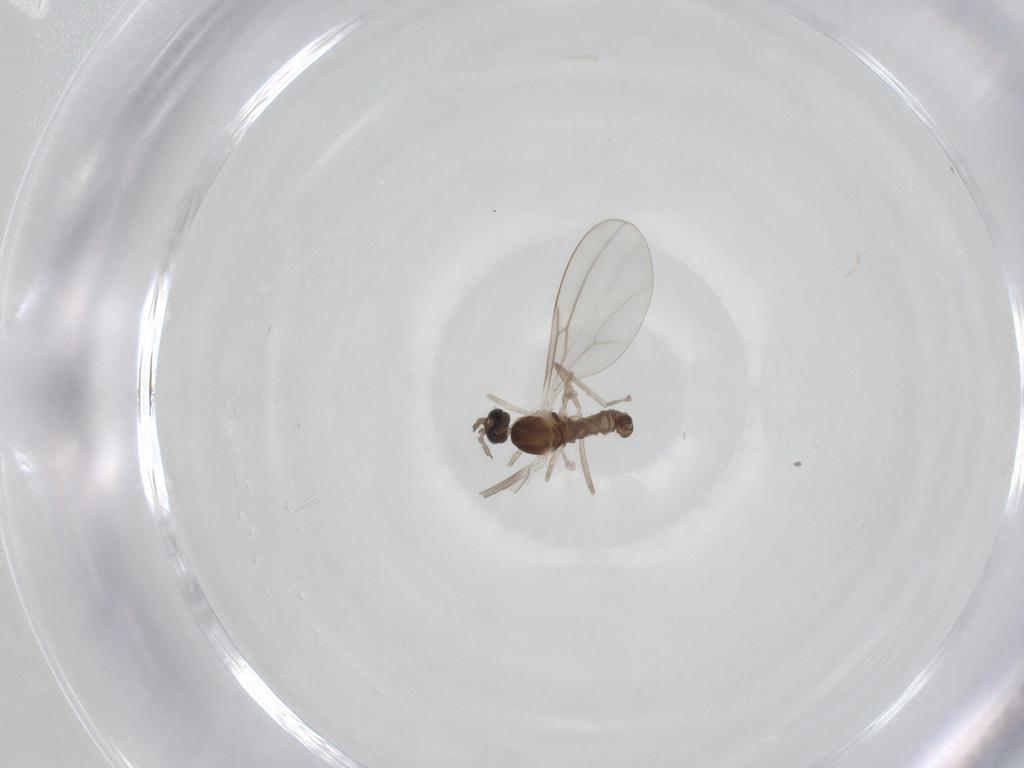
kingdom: Animalia
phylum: Arthropoda
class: Insecta
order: Diptera
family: Cecidomyiidae
